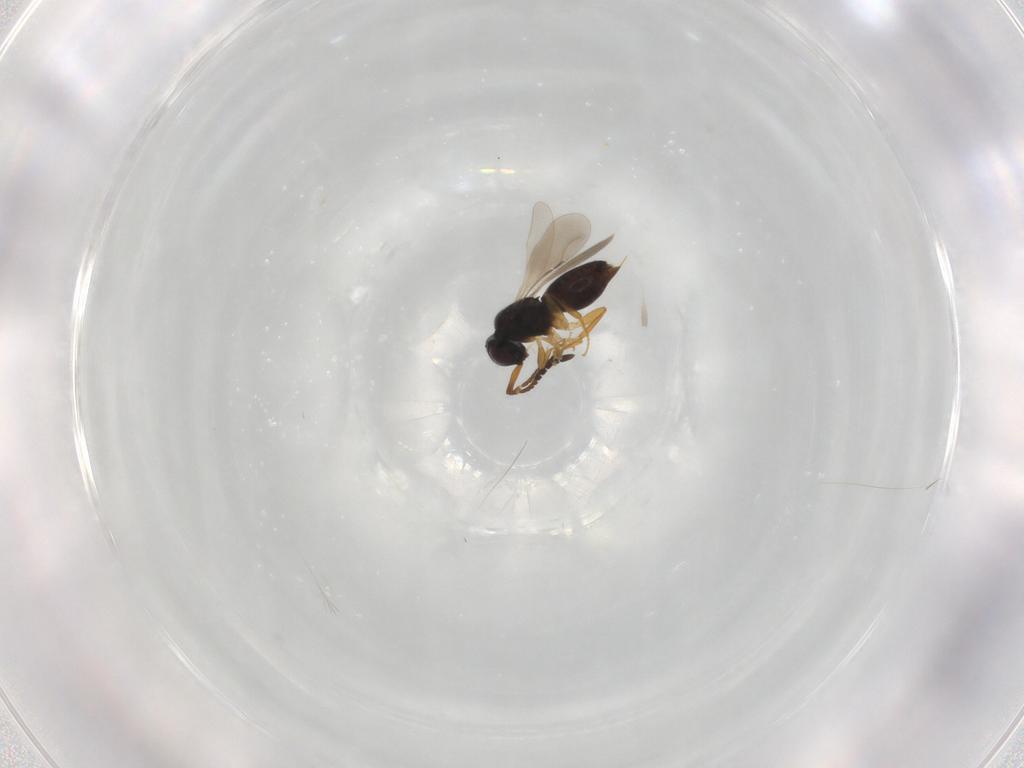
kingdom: Animalia
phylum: Arthropoda
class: Insecta
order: Hymenoptera
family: Ceraphronidae
